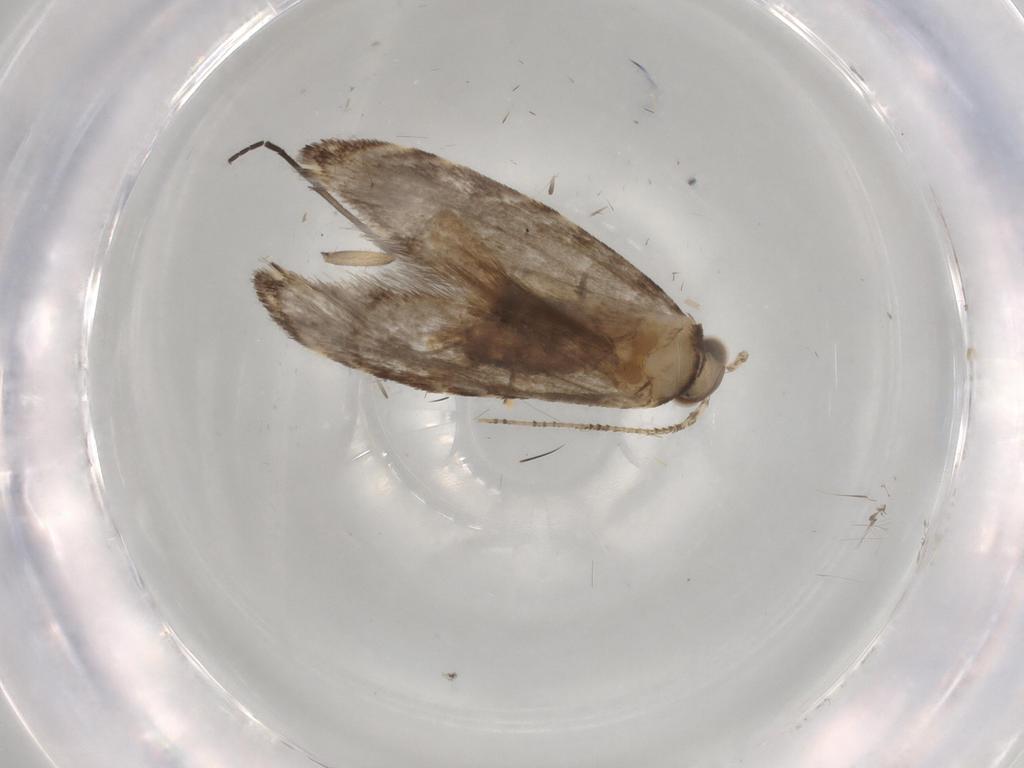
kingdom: Animalia
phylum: Arthropoda
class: Insecta
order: Lepidoptera
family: Tineidae
